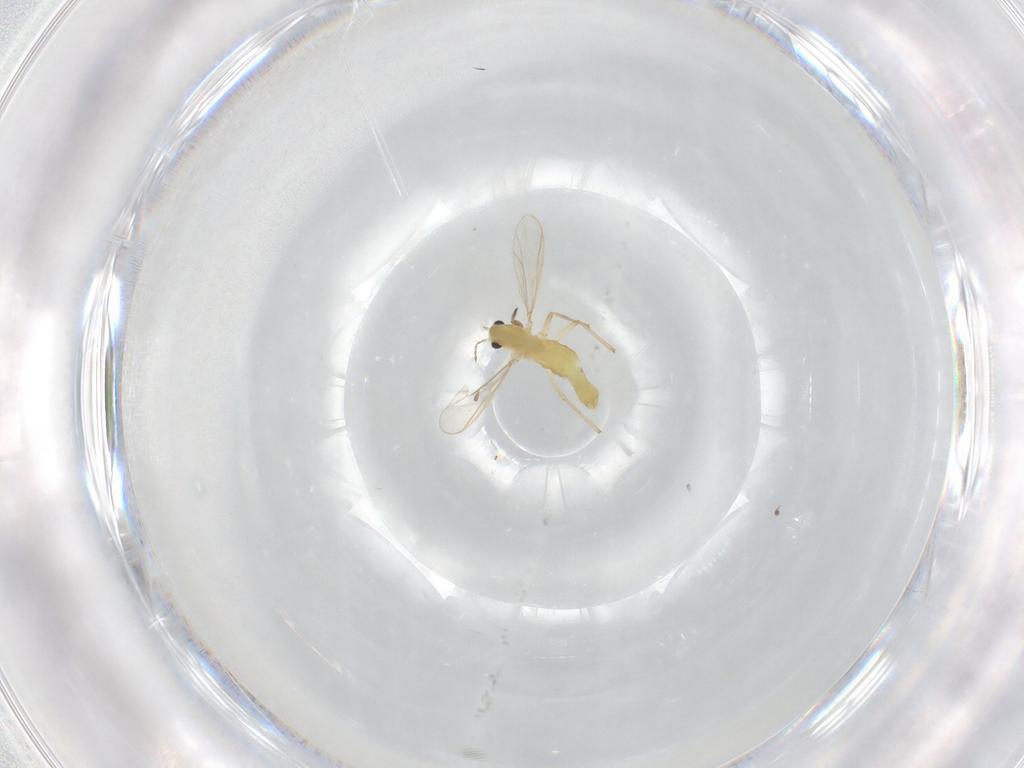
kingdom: Animalia
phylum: Arthropoda
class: Insecta
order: Diptera
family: Chironomidae
